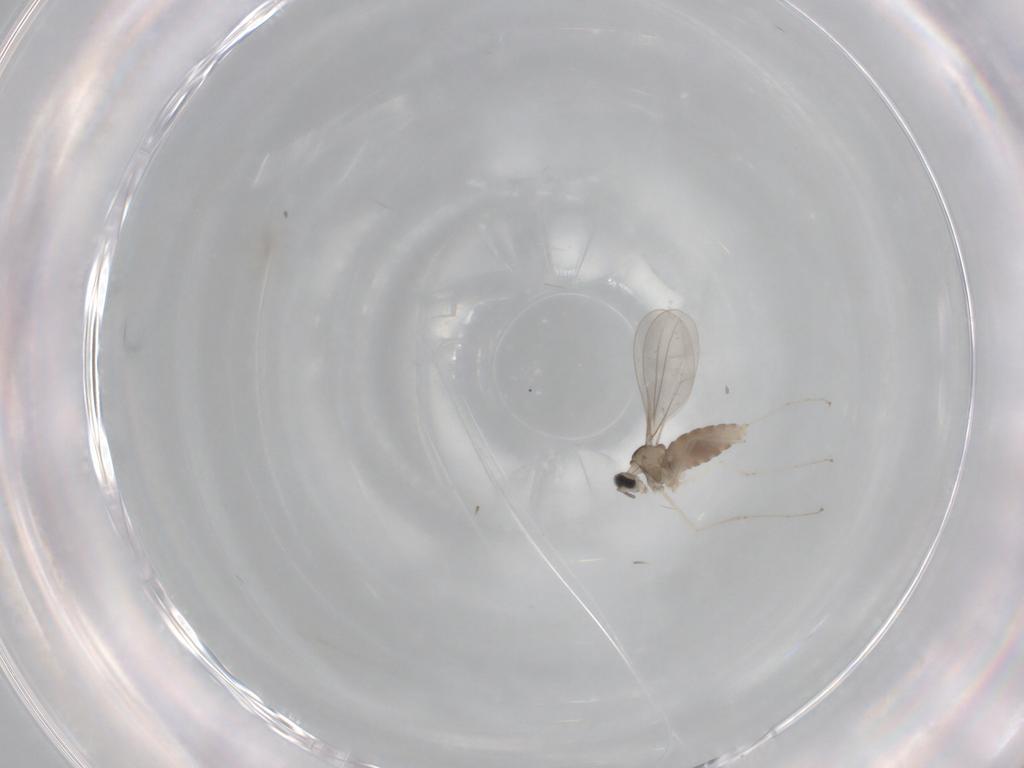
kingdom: Animalia
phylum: Arthropoda
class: Insecta
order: Diptera
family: Cecidomyiidae
